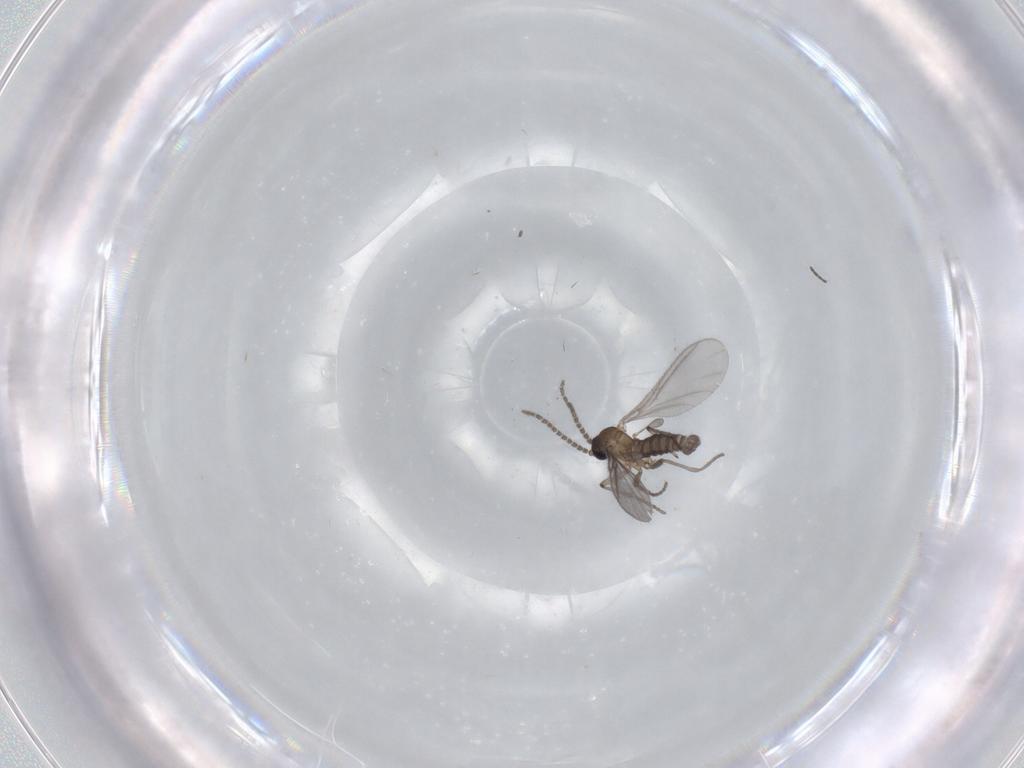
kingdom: Animalia
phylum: Arthropoda
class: Insecta
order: Diptera
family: Sciaridae
